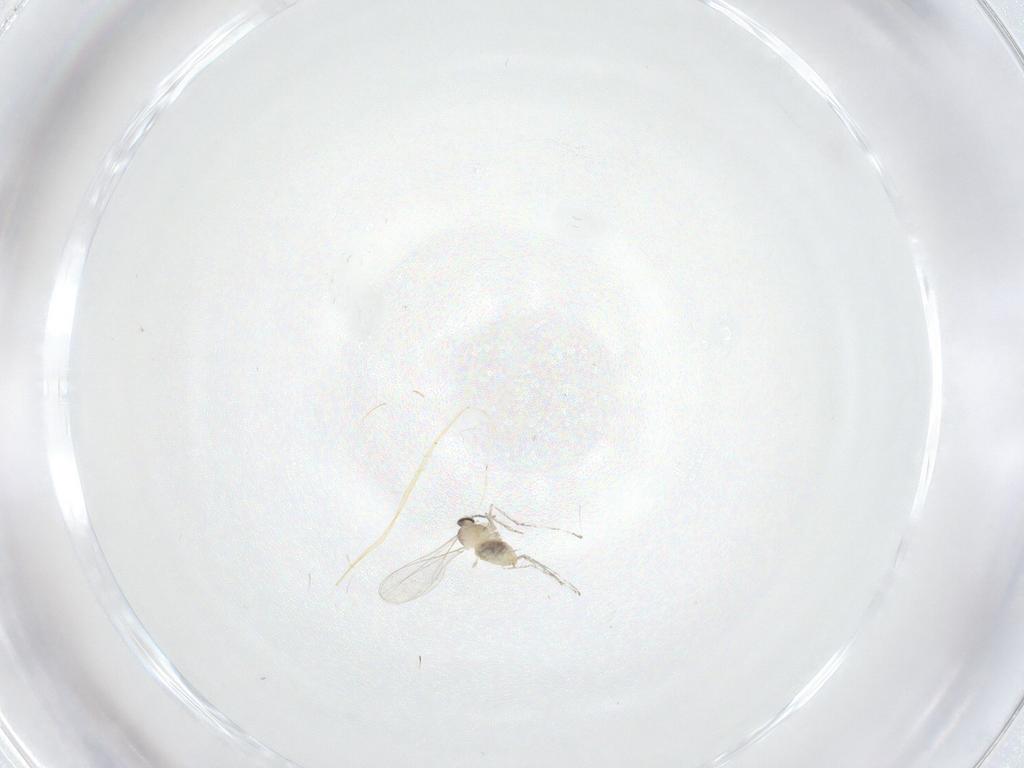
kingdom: Animalia
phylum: Arthropoda
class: Insecta
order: Diptera
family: Cecidomyiidae
